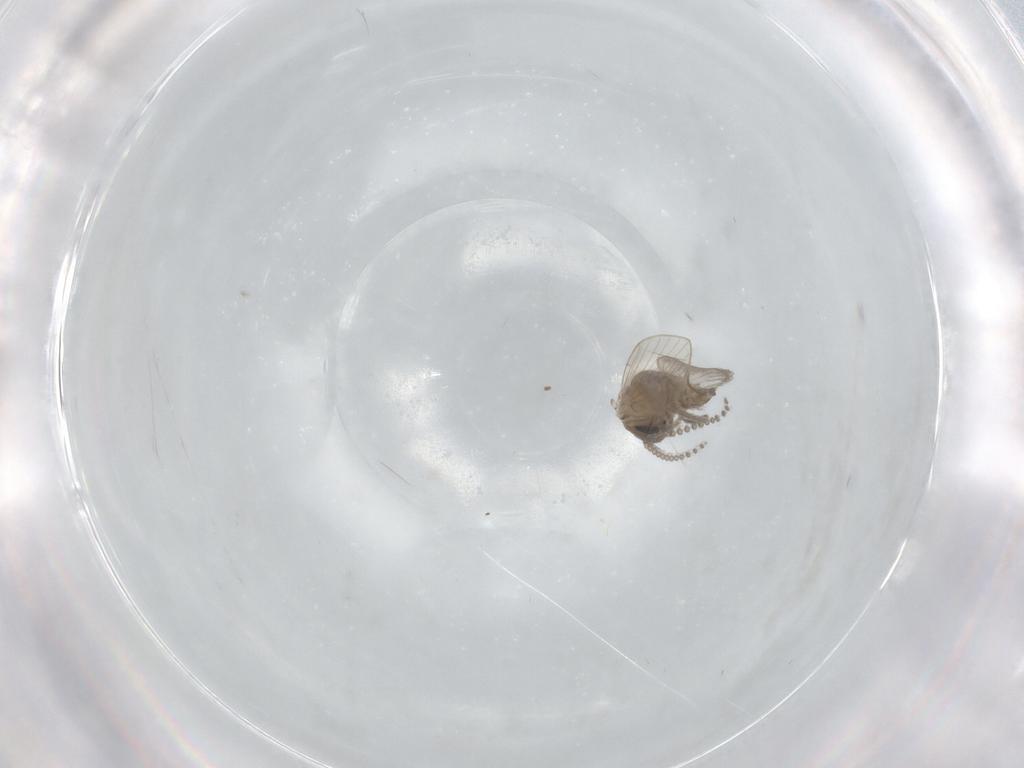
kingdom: Animalia
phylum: Arthropoda
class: Insecta
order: Diptera
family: Psychodidae
